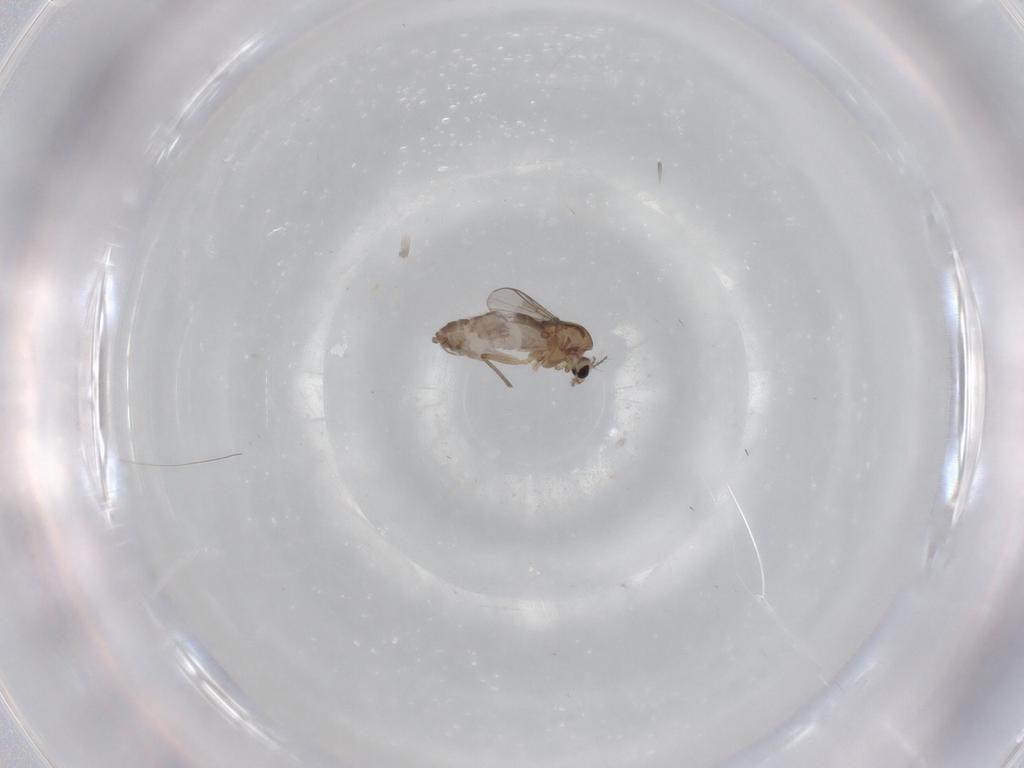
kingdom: Animalia
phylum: Arthropoda
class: Insecta
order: Diptera
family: Chironomidae
